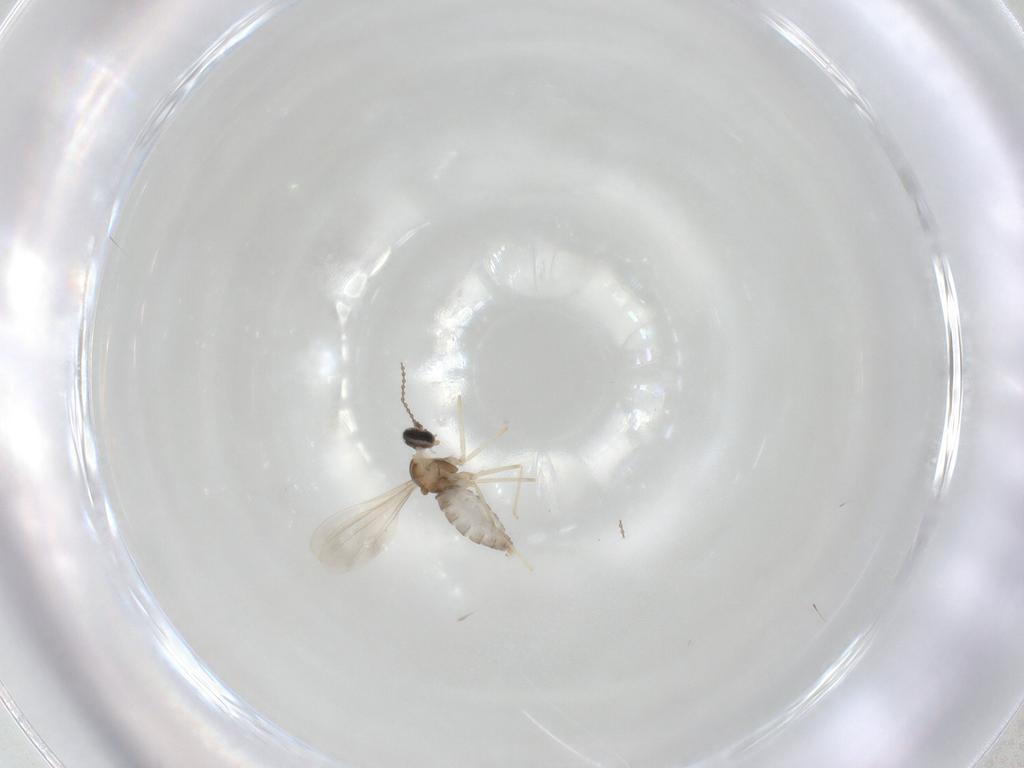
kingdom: Animalia
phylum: Arthropoda
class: Insecta
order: Diptera
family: Cecidomyiidae
